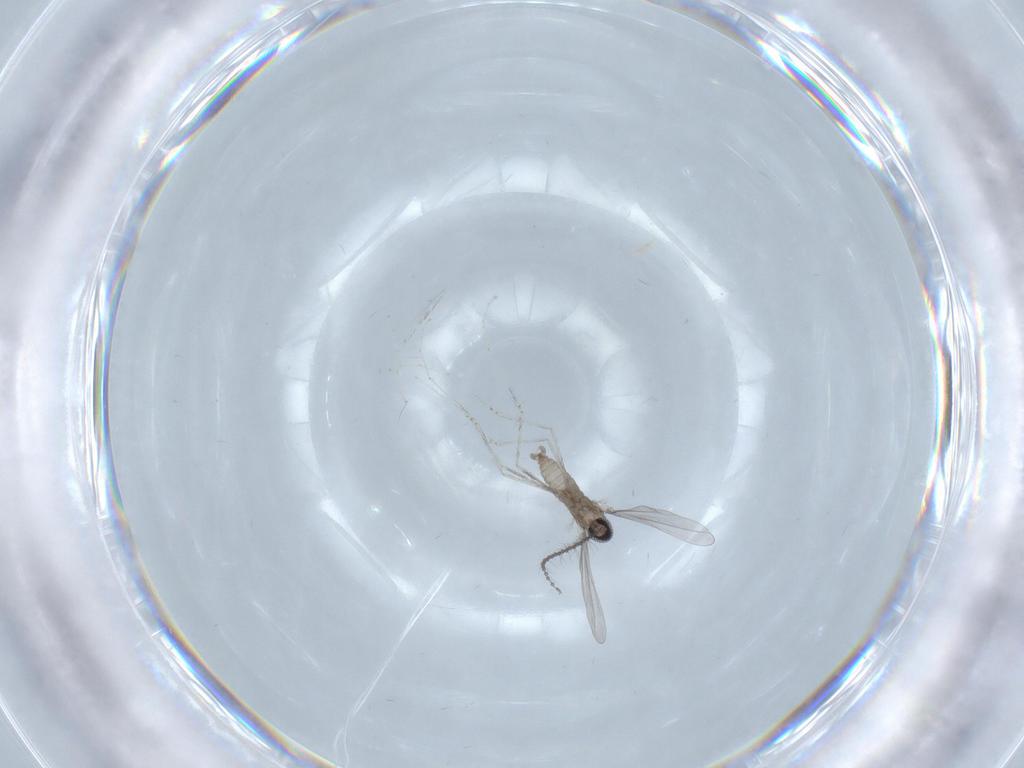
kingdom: Animalia
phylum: Arthropoda
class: Insecta
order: Diptera
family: Cecidomyiidae
